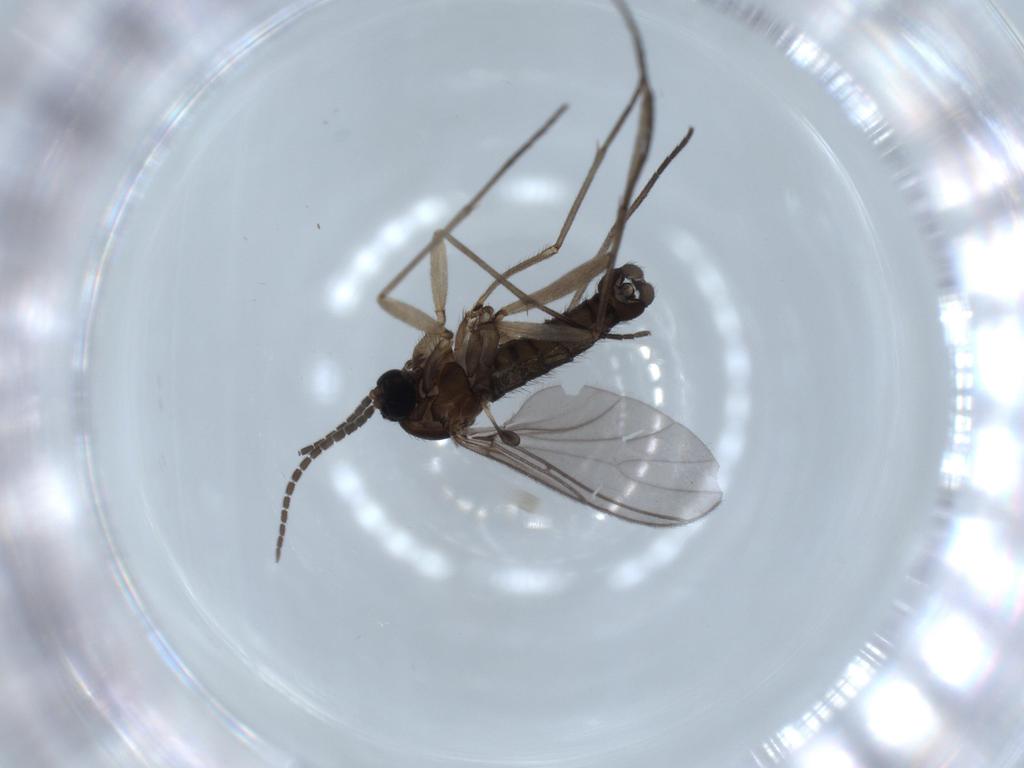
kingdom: Animalia
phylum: Arthropoda
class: Insecta
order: Diptera
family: Sciaridae
